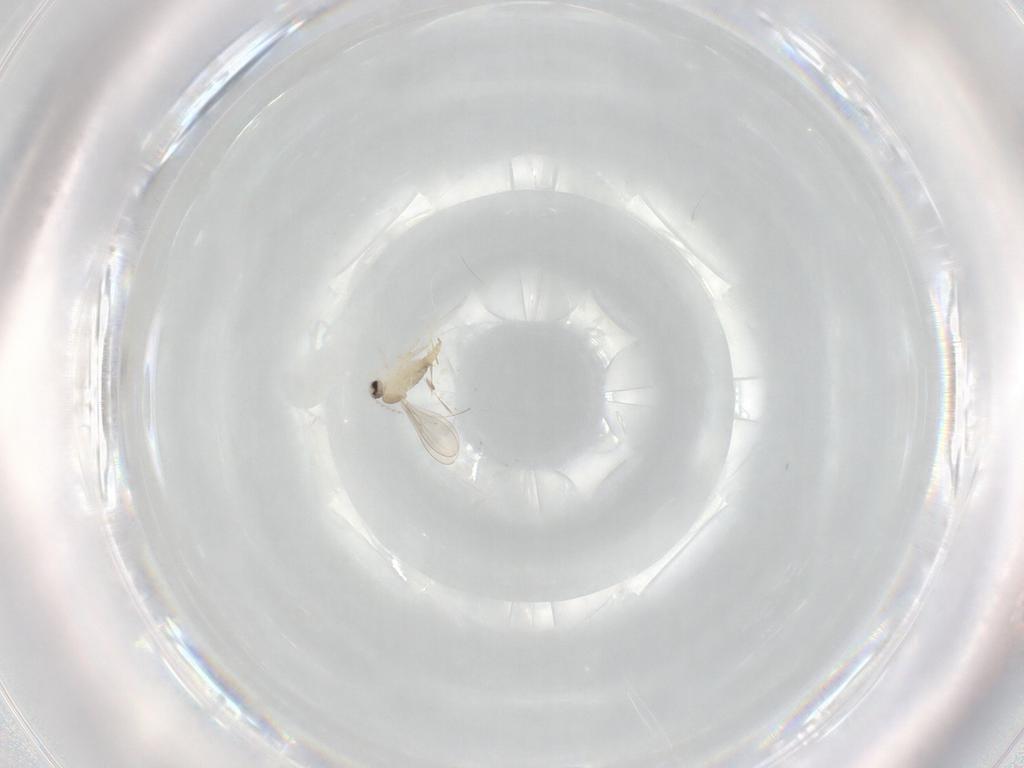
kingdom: Animalia
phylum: Arthropoda
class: Insecta
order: Diptera
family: Cecidomyiidae
